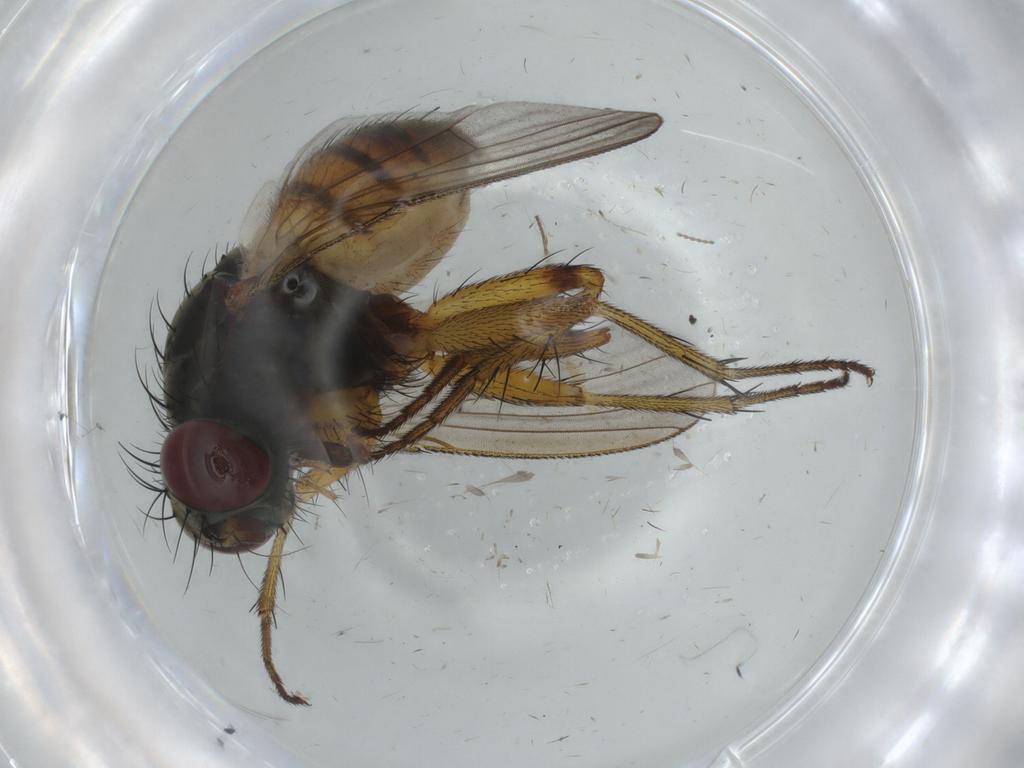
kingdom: Animalia
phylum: Arthropoda
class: Insecta
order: Diptera
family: Muscidae
